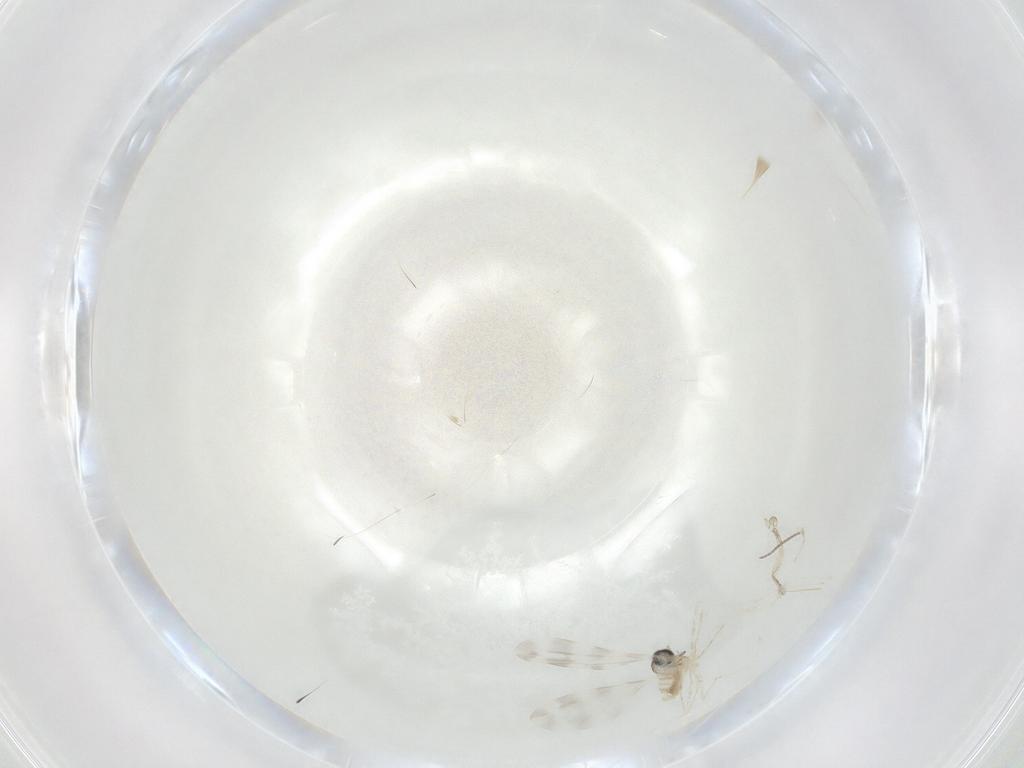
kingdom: Animalia
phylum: Arthropoda
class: Insecta
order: Diptera
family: Cecidomyiidae
